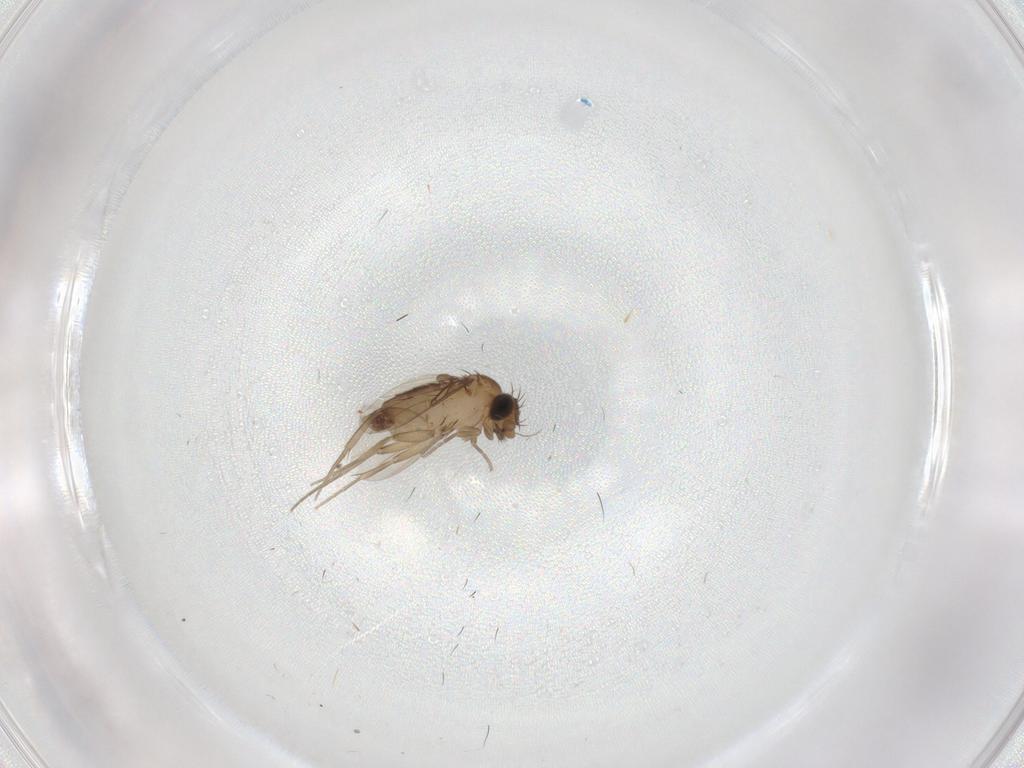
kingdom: Animalia
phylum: Arthropoda
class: Insecta
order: Diptera
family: Phoridae
